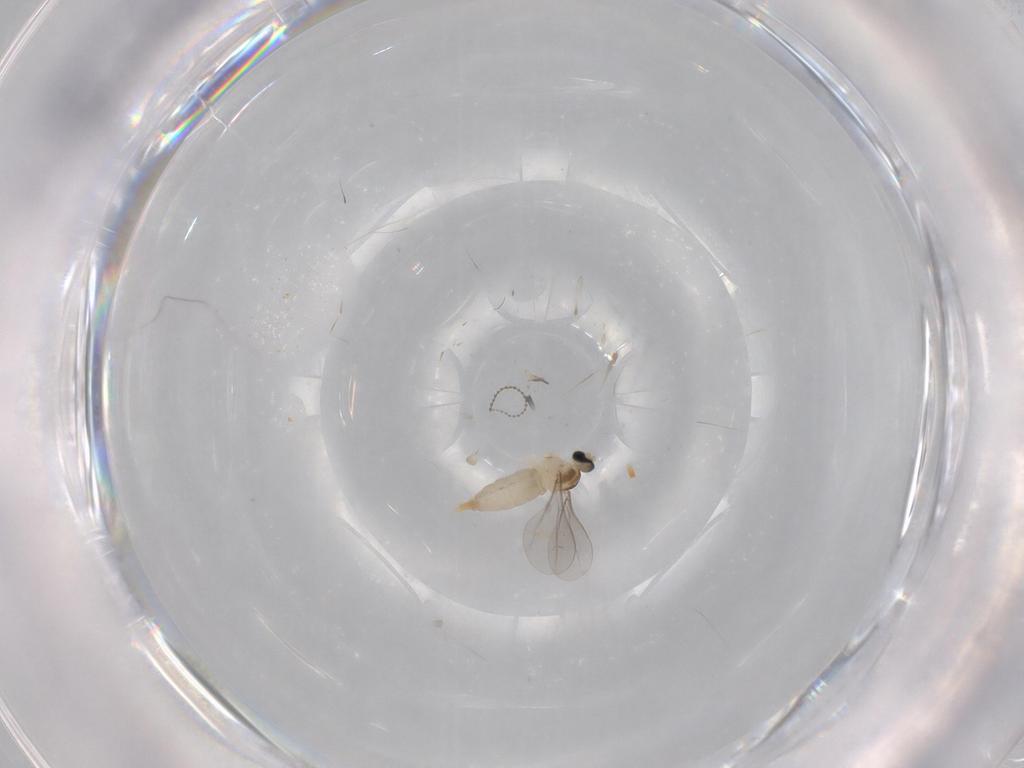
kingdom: Animalia
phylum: Arthropoda
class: Insecta
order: Diptera
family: Cecidomyiidae
